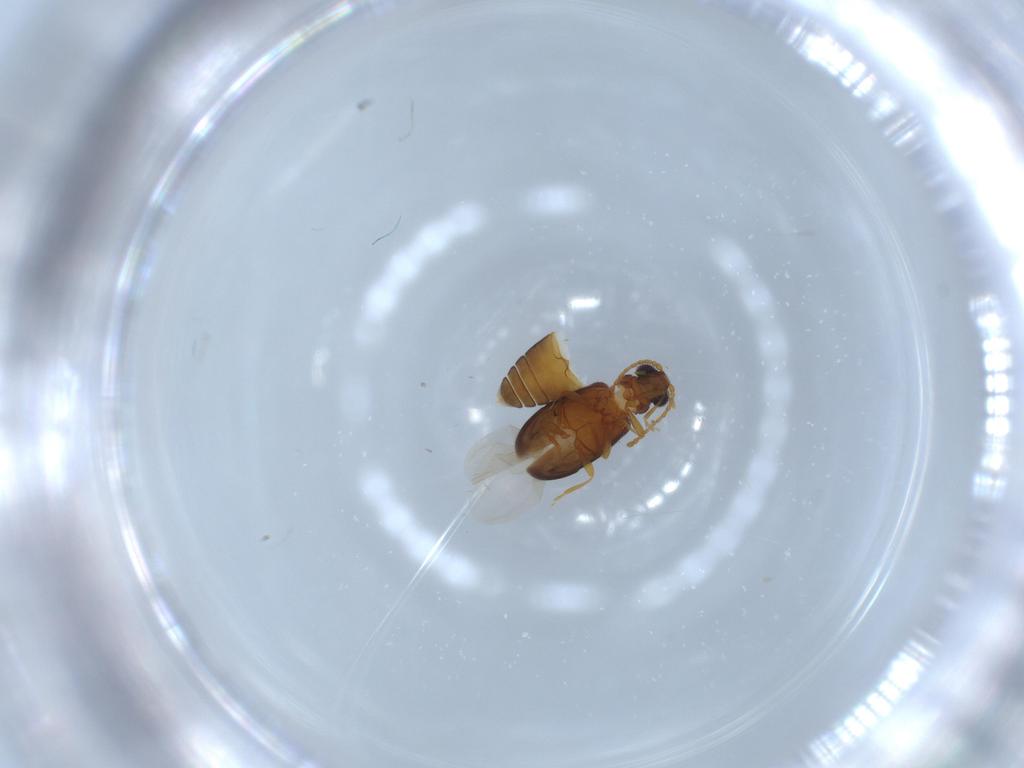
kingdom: Animalia
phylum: Arthropoda
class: Insecta
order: Coleoptera
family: Aderidae
